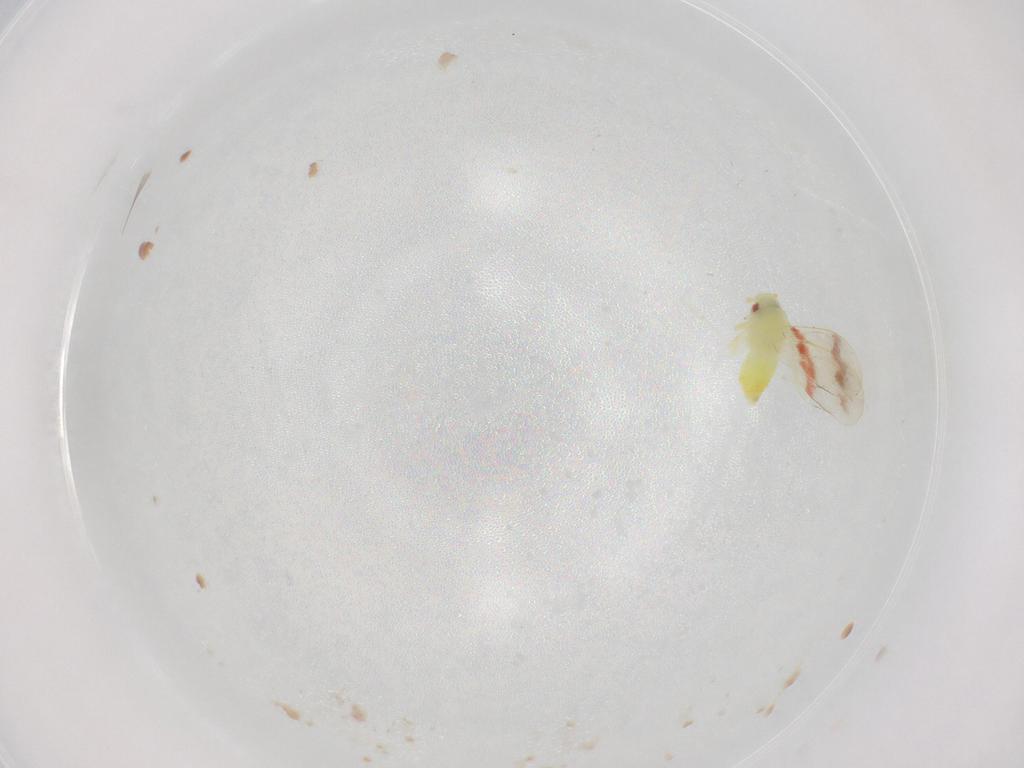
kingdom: Animalia
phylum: Arthropoda
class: Insecta
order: Hemiptera
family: Aleyrodidae
